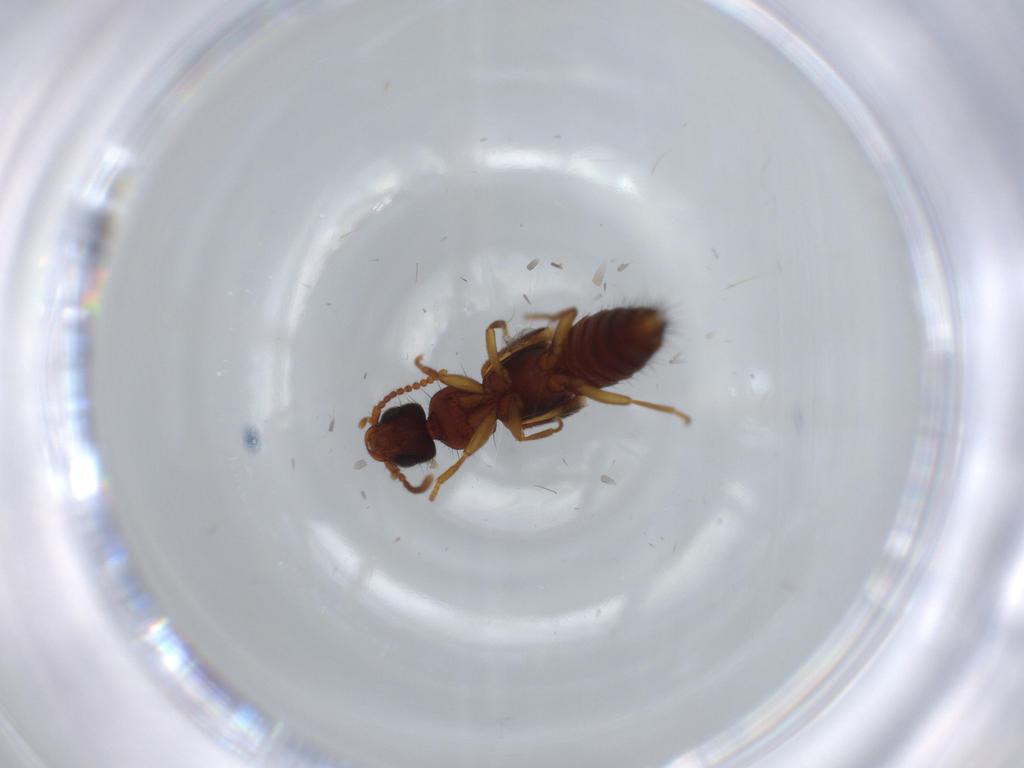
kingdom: Animalia
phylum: Arthropoda
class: Insecta
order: Coleoptera
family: Staphylinidae
